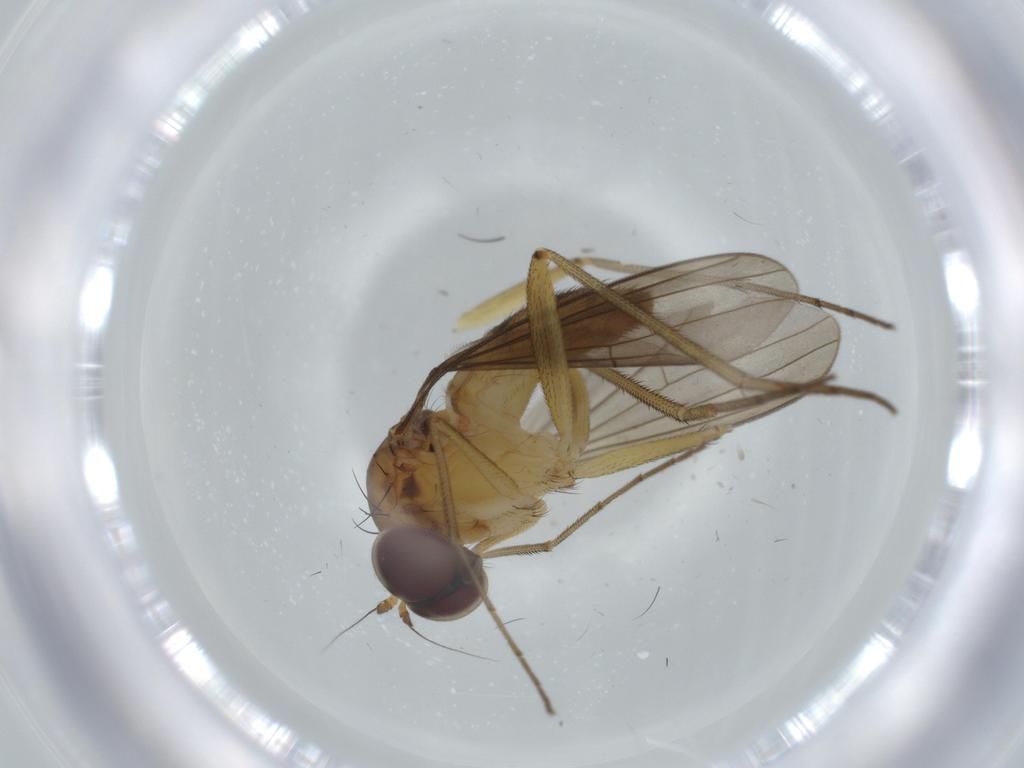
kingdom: Animalia
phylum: Arthropoda
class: Insecta
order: Diptera
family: Dolichopodidae
